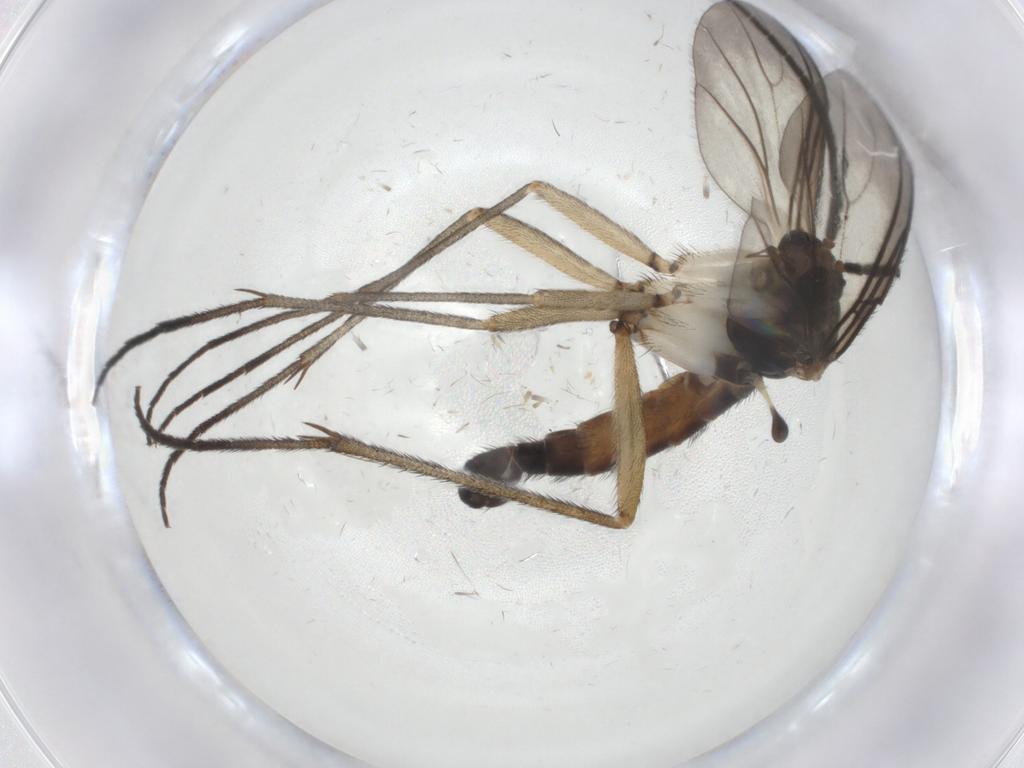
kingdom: Animalia
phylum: Arthropoda
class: Insecta
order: Diptera
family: Sciaridae
